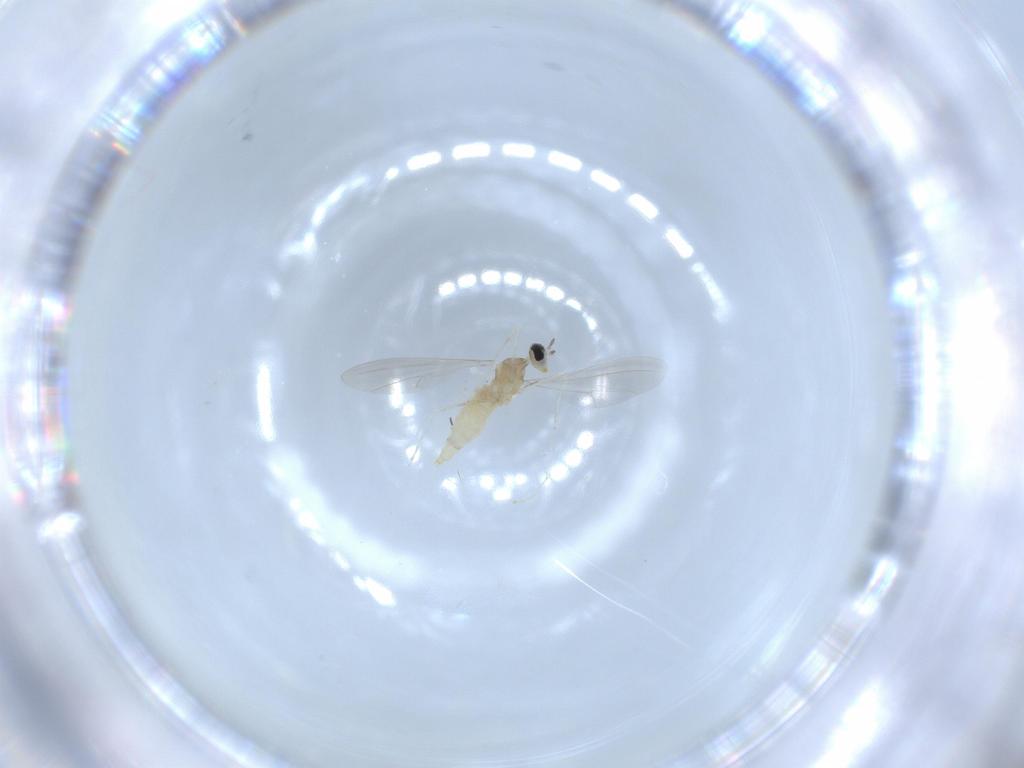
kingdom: Animalia
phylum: Arthropoda
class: Insecta
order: Diptera
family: Cecidomyiidae
